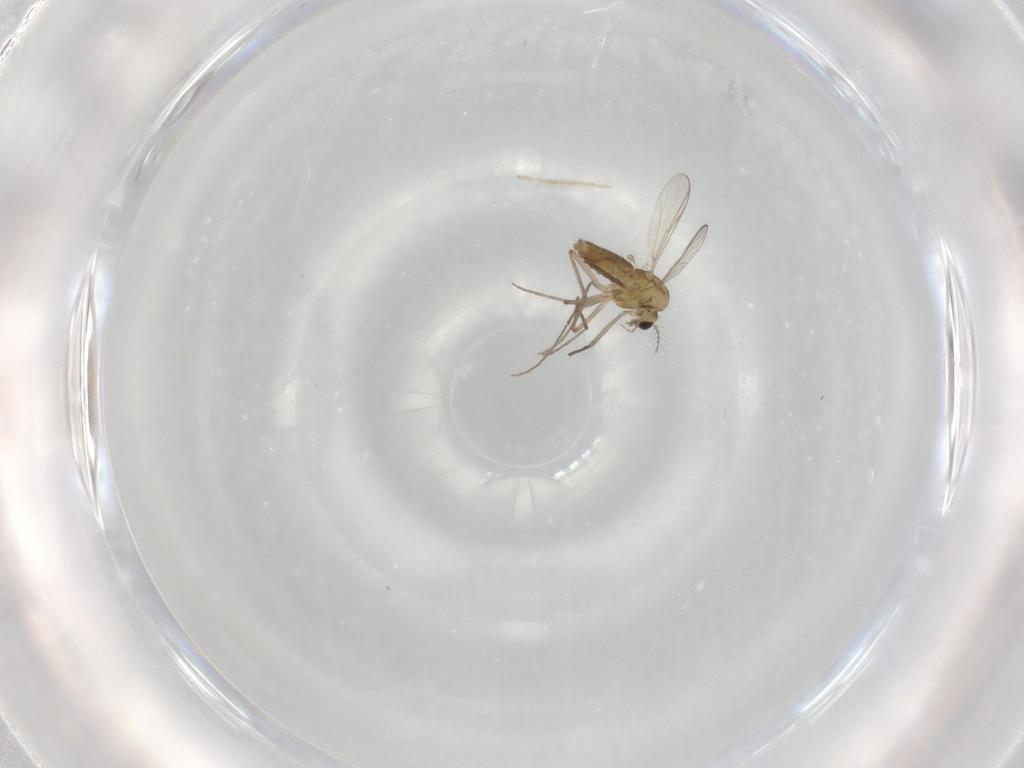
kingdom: Animalia
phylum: Arthropoda
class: Insecta
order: Diptera
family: Chironomidae
